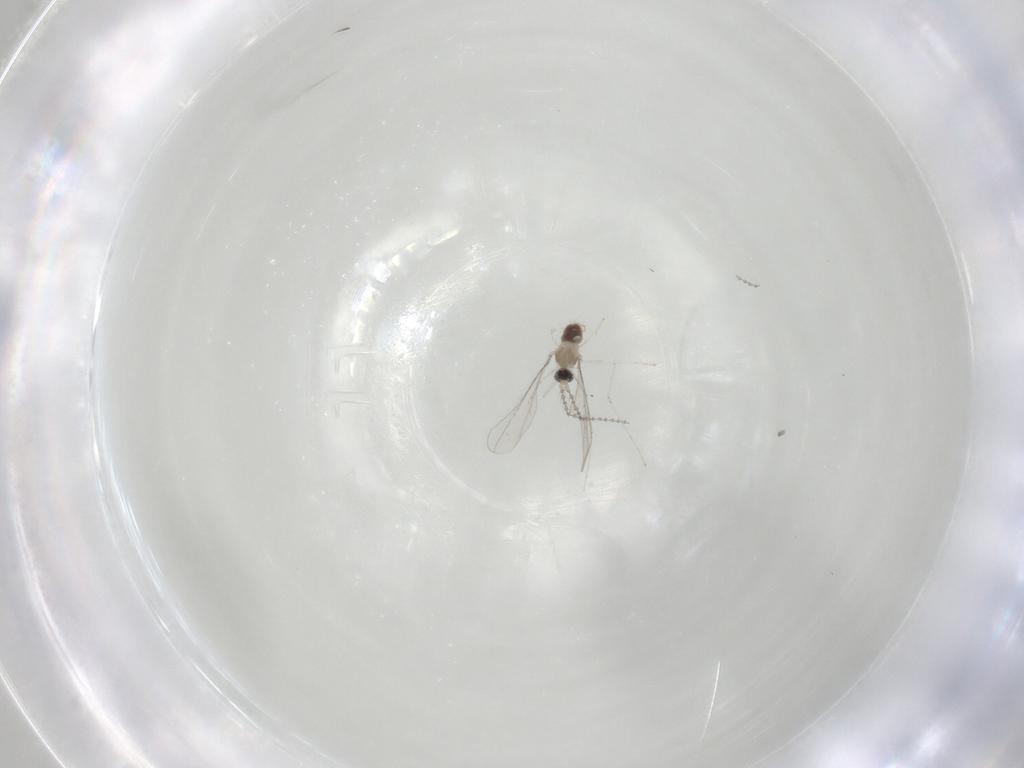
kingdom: Animalia
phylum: Arthropoda
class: Insecta
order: Diptera
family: Cecidomyiidae
